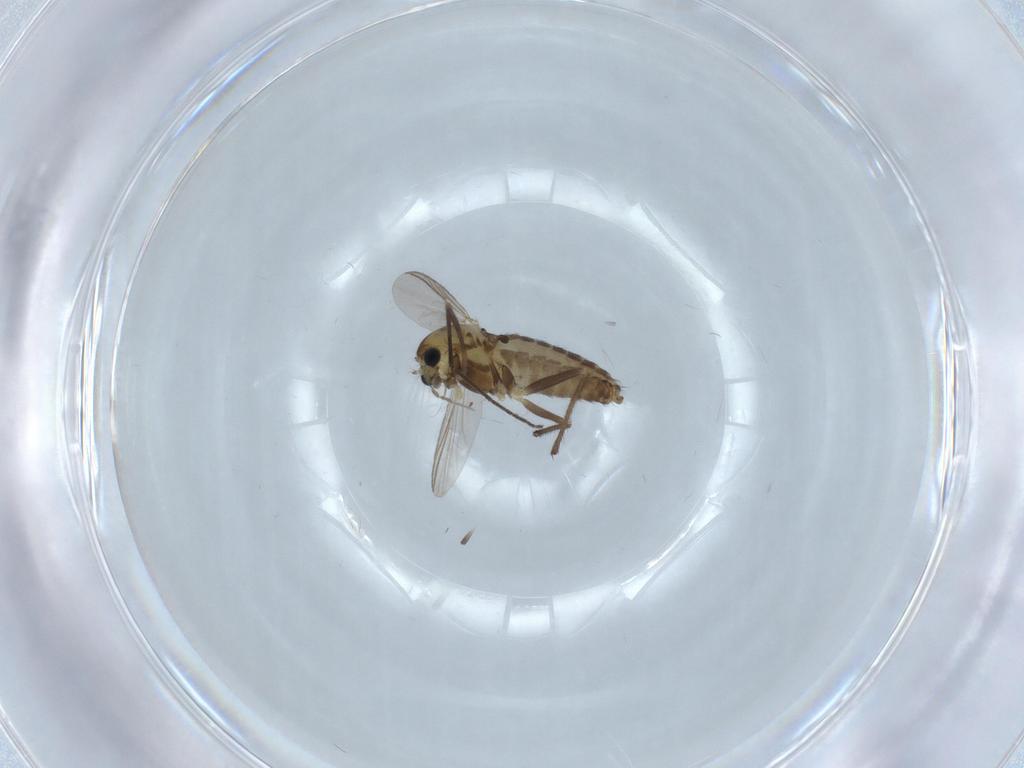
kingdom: Animalia
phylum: Arthropoda
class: Insecta
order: Diptera
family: Chironomidae
